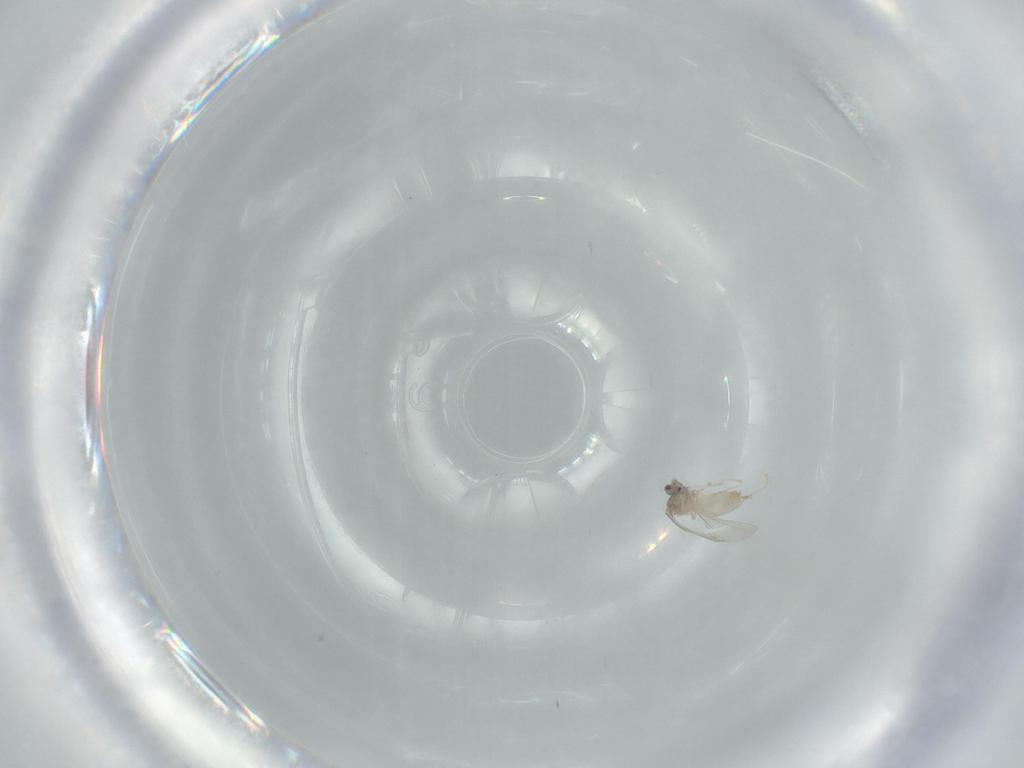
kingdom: Animalia
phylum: Arthropoda
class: Insecta
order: Diptera
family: Cecidomyiidae
